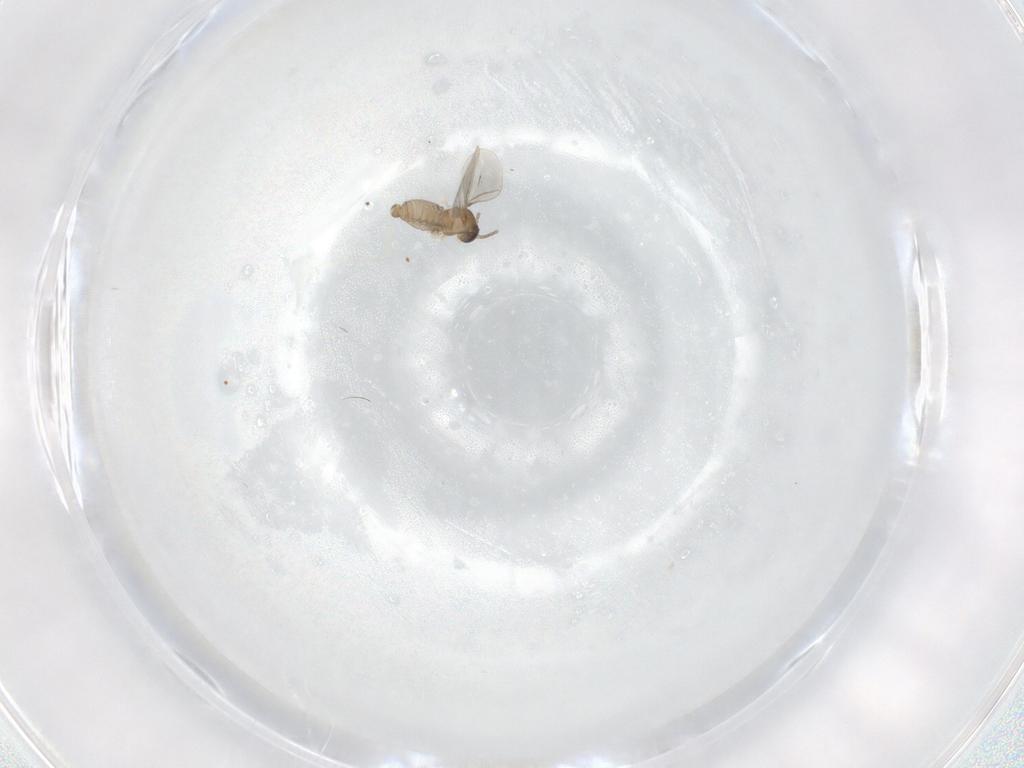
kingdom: Animalia
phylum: Arthropoda
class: Insecta
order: Diptera
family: Cecidomyiidae
